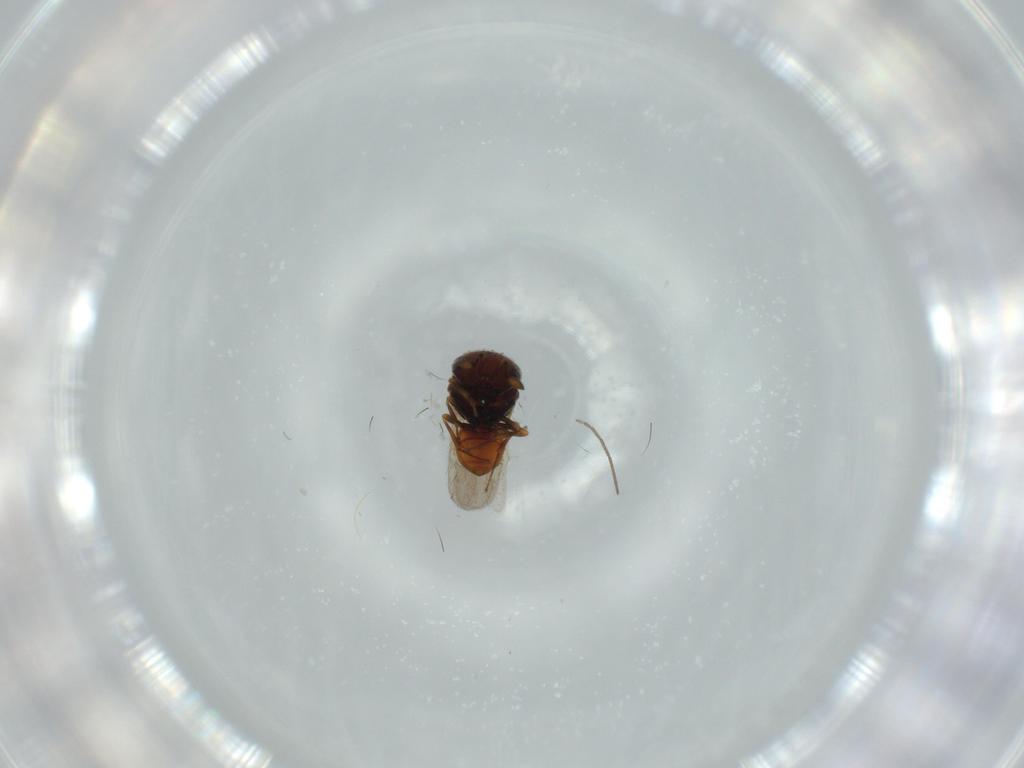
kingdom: Animalia
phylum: Arthropoda
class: Insecta
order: Hymenoptera
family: Scelionidae
